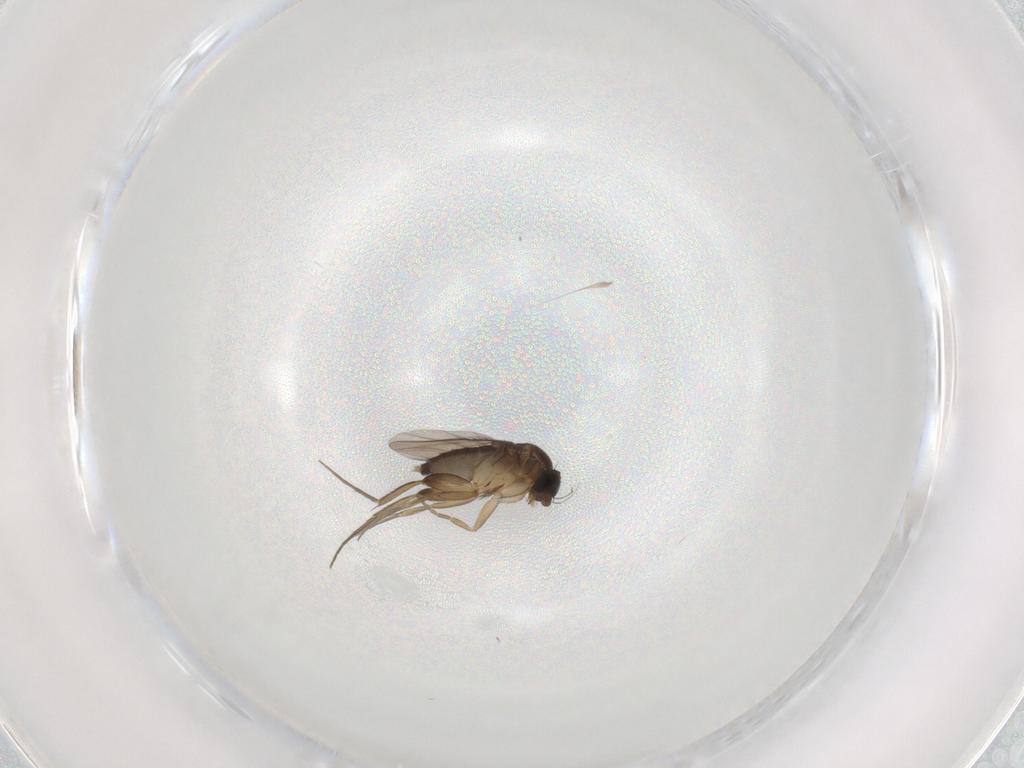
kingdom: Animalia
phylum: Arthropoda
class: Insecta
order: Diptera
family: Phoridae
